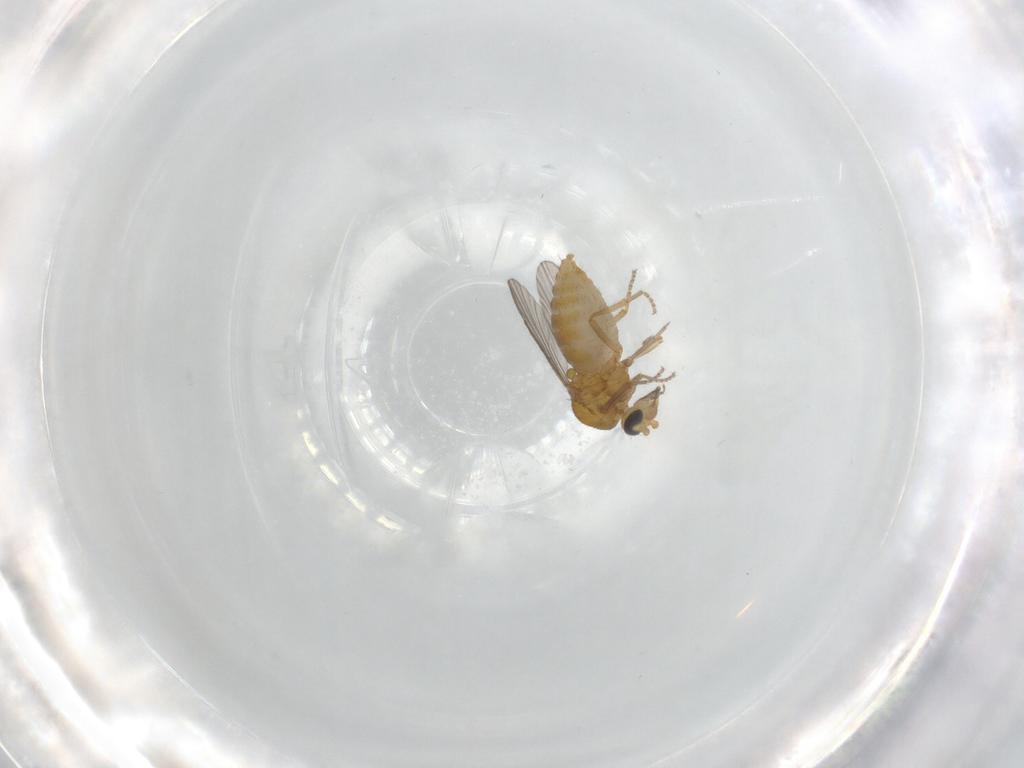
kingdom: Animalia
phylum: Arthropoda
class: Insecta
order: Diptera
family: Ceratopogonidae
